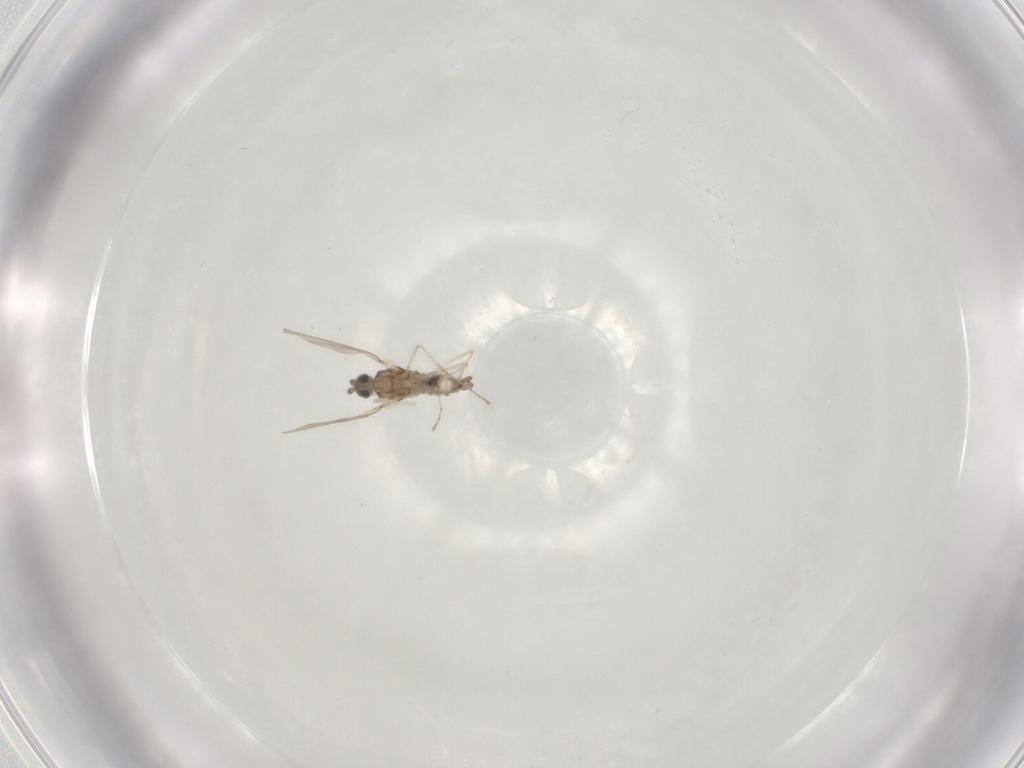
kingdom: Animalia
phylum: Arthropoda
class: Insecta
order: Diptera
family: Cecidomyiidae
